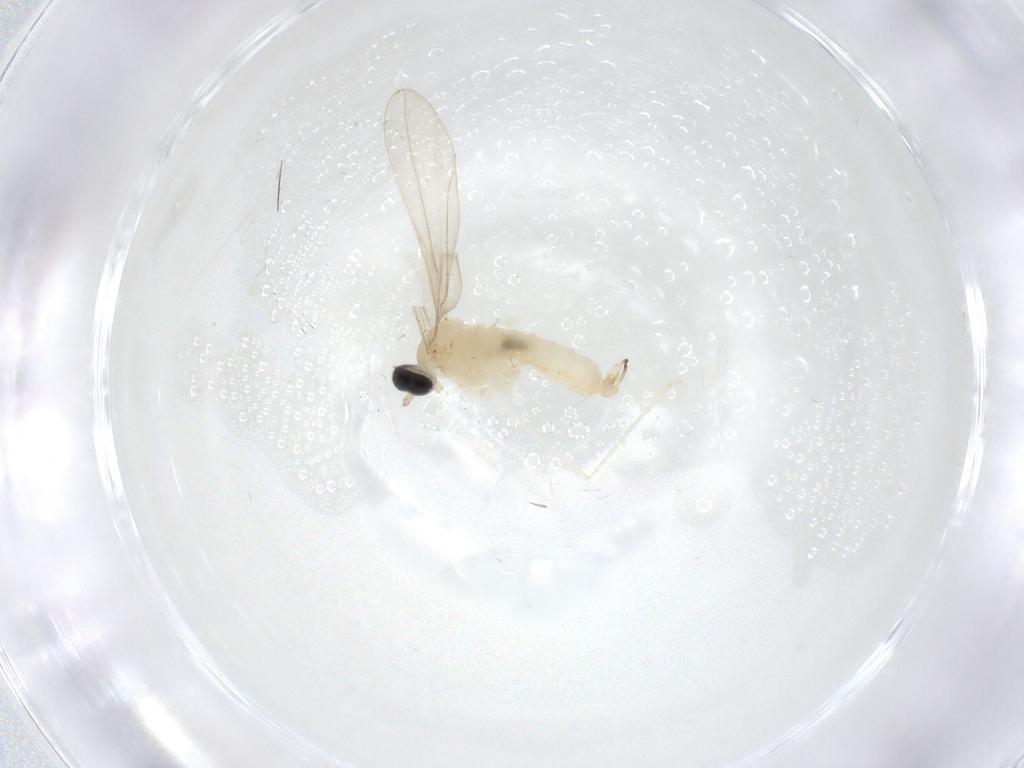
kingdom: Animalia
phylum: Arthropoda
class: Insecta
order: Diptera
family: Cecidomyiidae
